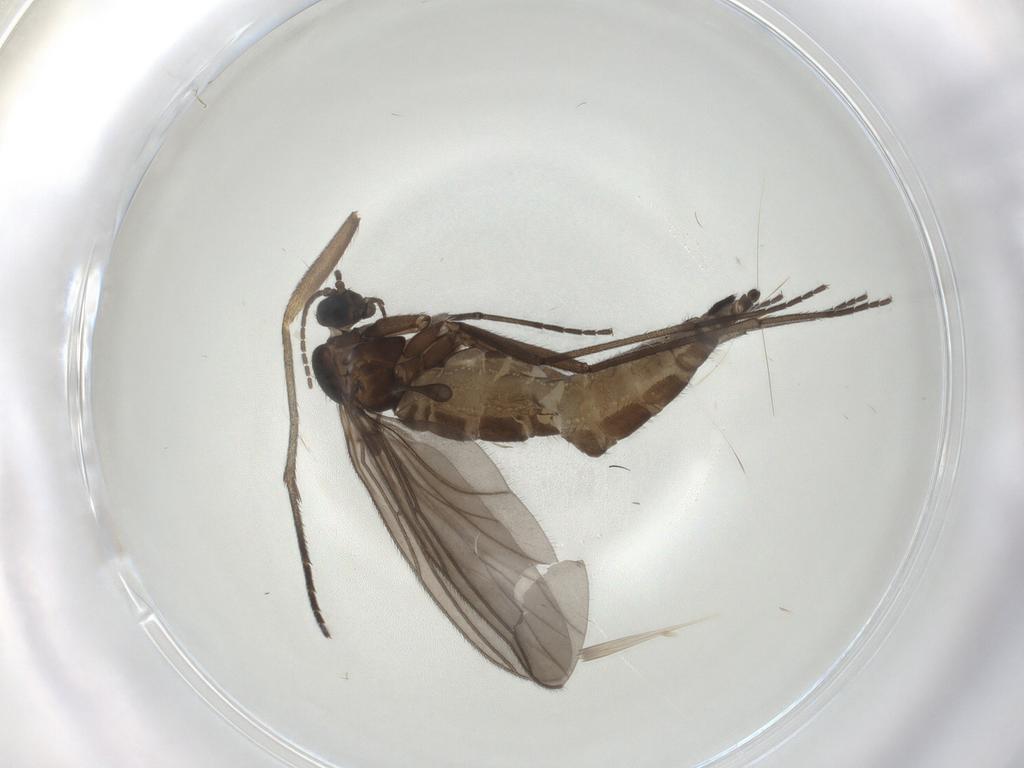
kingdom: Animalia
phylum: Arthropoda
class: Insecta
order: Diptera
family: Sciaridae
